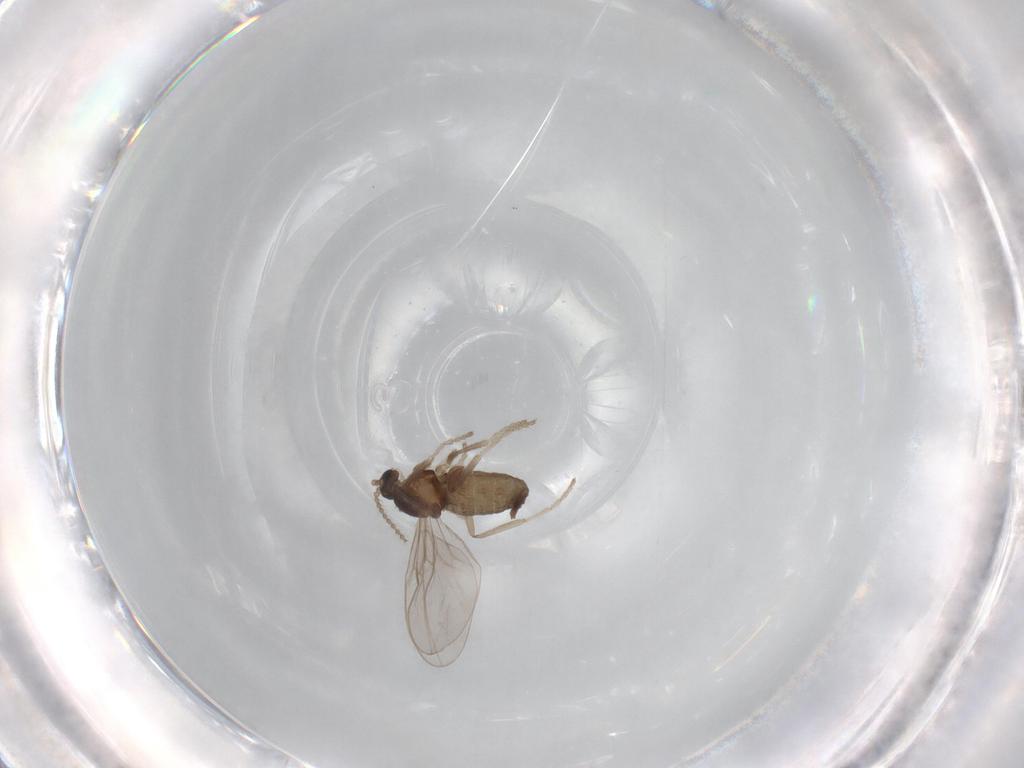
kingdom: Animalia
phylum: Arthropoda
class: Insecta
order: Diptera
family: Cecidomyiidae
